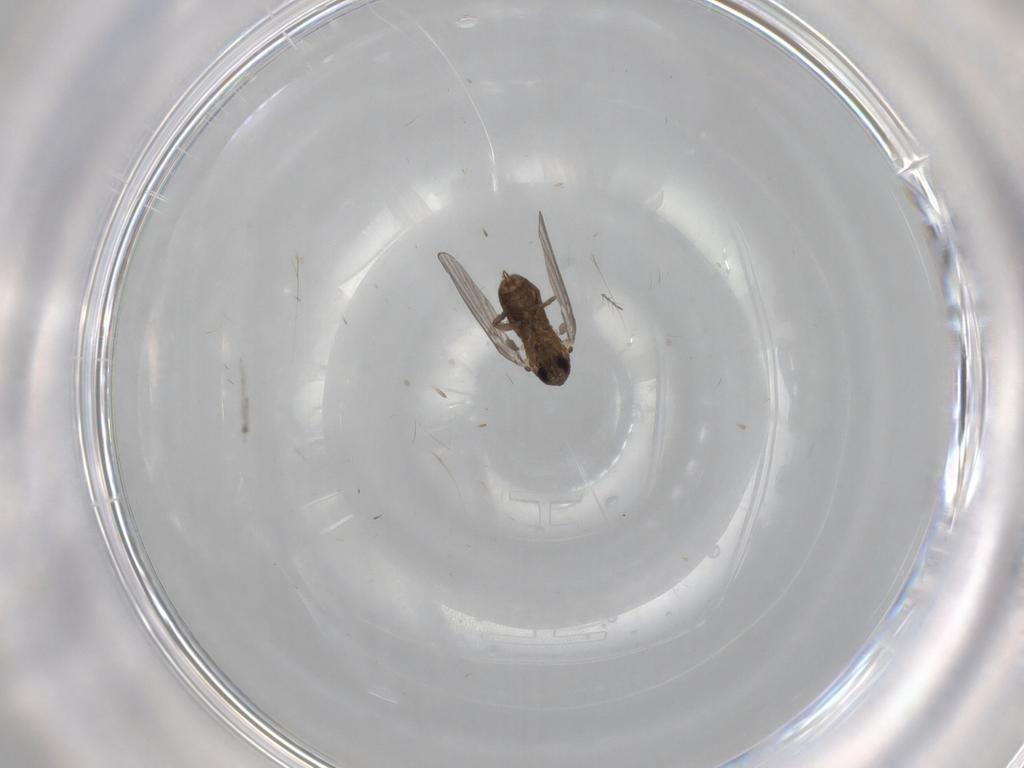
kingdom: Animalia
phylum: Arthropoda
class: Insecta
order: Diptera
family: Chironomidae
